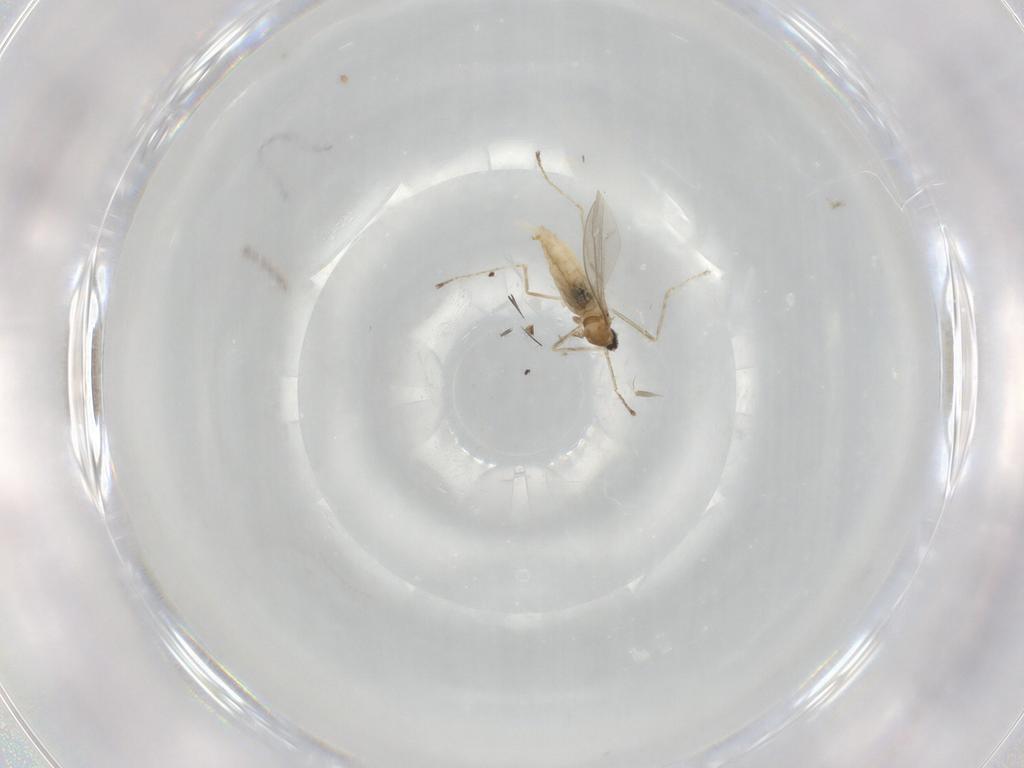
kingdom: Animalia
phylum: Arthropoda
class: Insecta
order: Diptera
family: Cecidomyiidae
